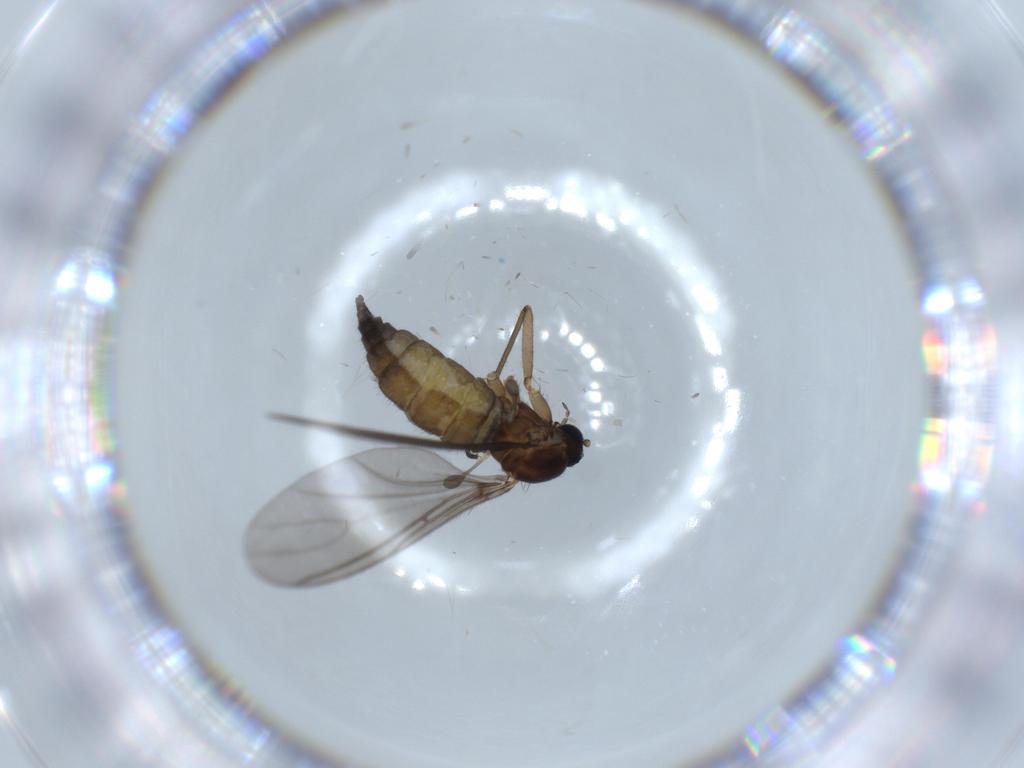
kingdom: Animalia
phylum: Arthropoda
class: Insecta
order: Diptera
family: Sciaridae
